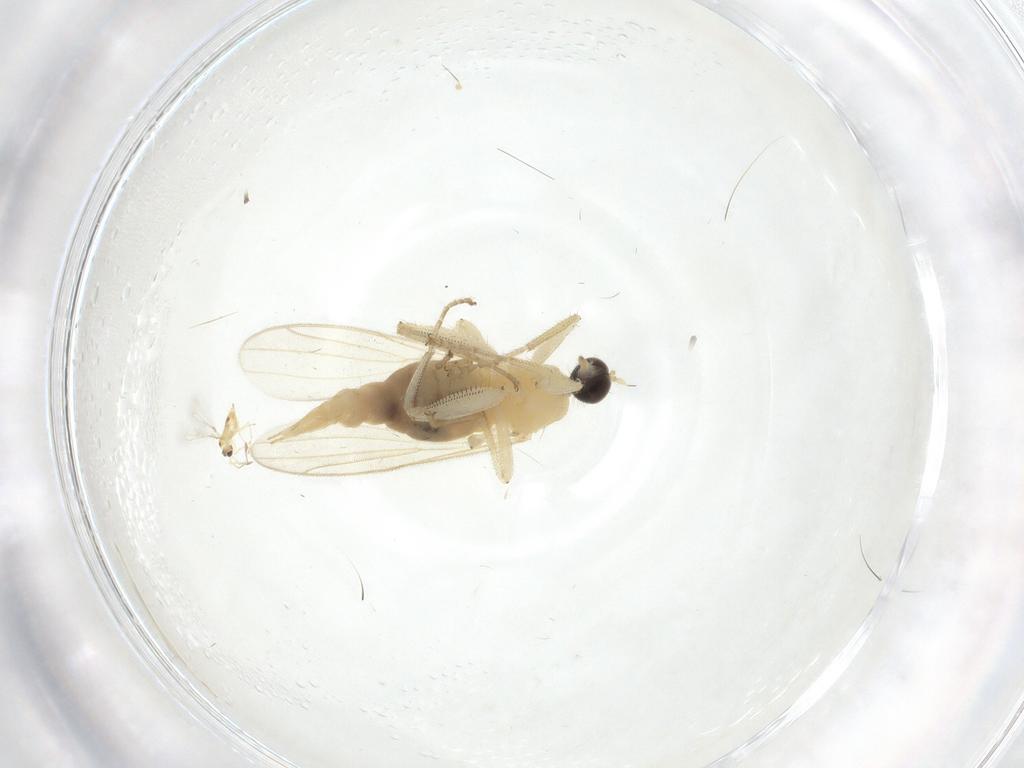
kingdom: Animalia
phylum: Arthropoda
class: Insecta
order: Diptera
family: Hybotidae
